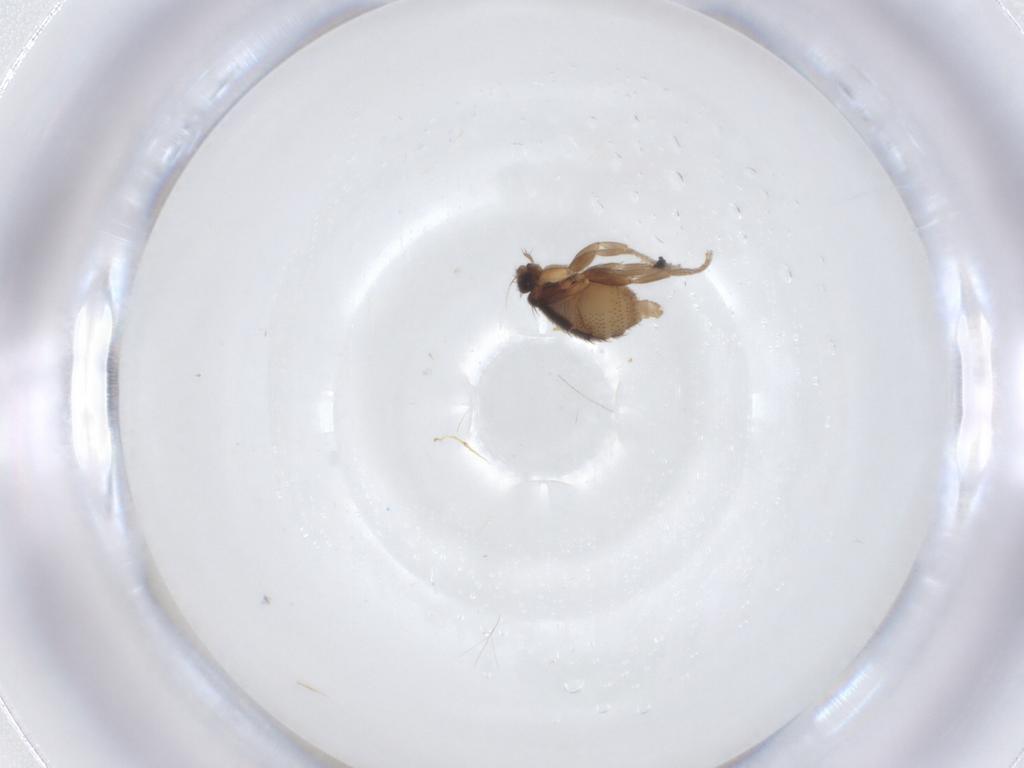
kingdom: Animalia
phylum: Arthropoda
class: Insecta
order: Diptera
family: Phoridae
